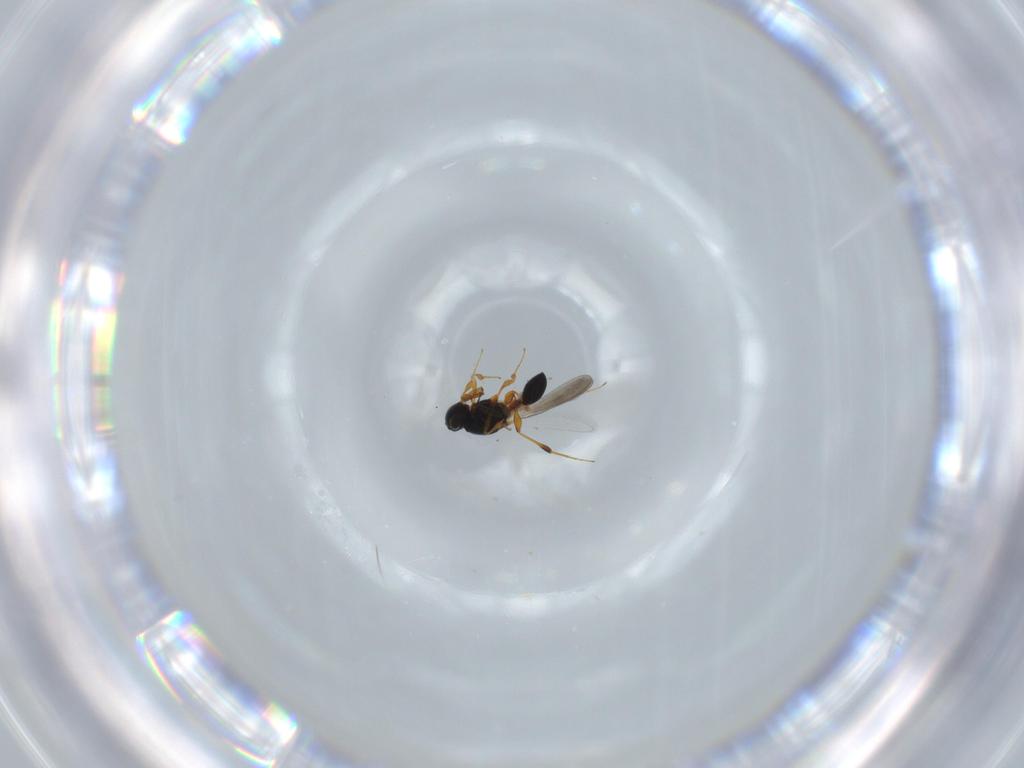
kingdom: Animalia
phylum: Arthropoda
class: Insecta
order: Hymenoptera
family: Platygastridae
